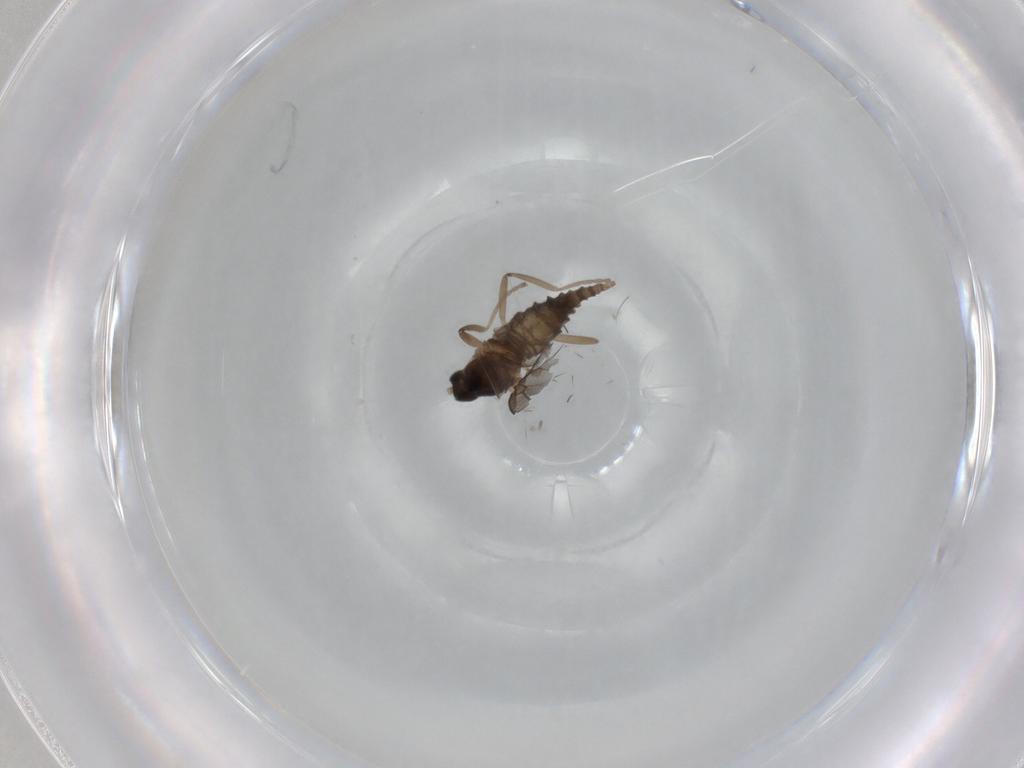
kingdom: Animalia
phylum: Arthropoda
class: Insecta
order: Diptera
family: Cecidomyiidae
